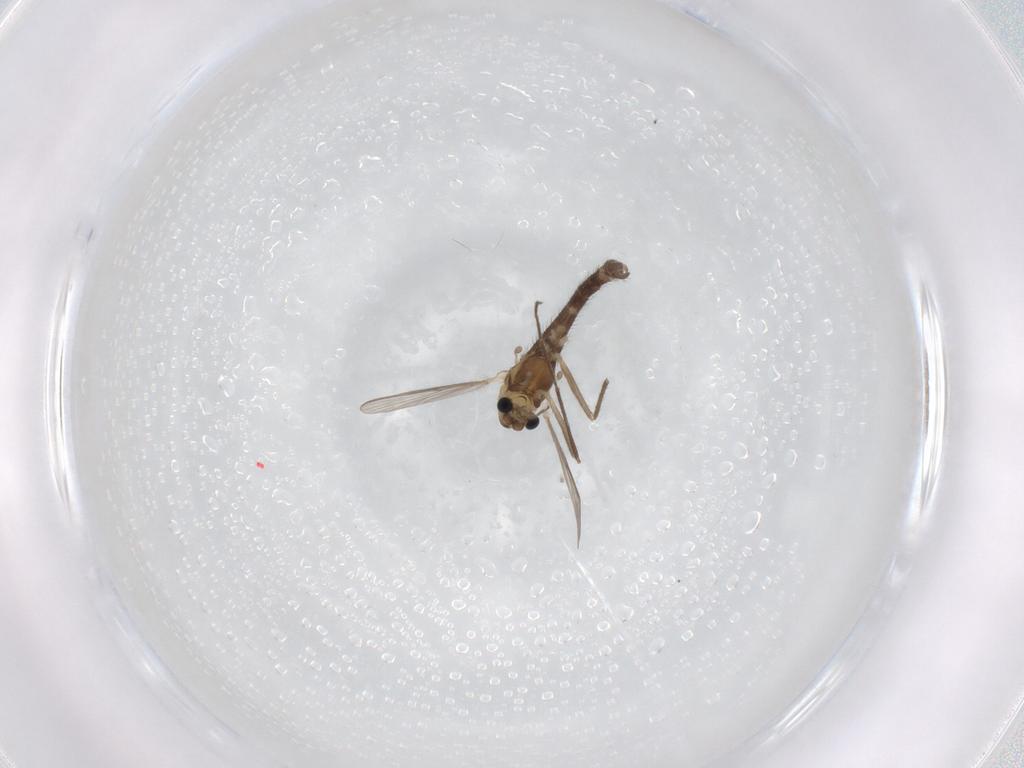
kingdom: Animalia
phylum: Arthropoda
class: Insecta
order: Diptera
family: Chironomidae
